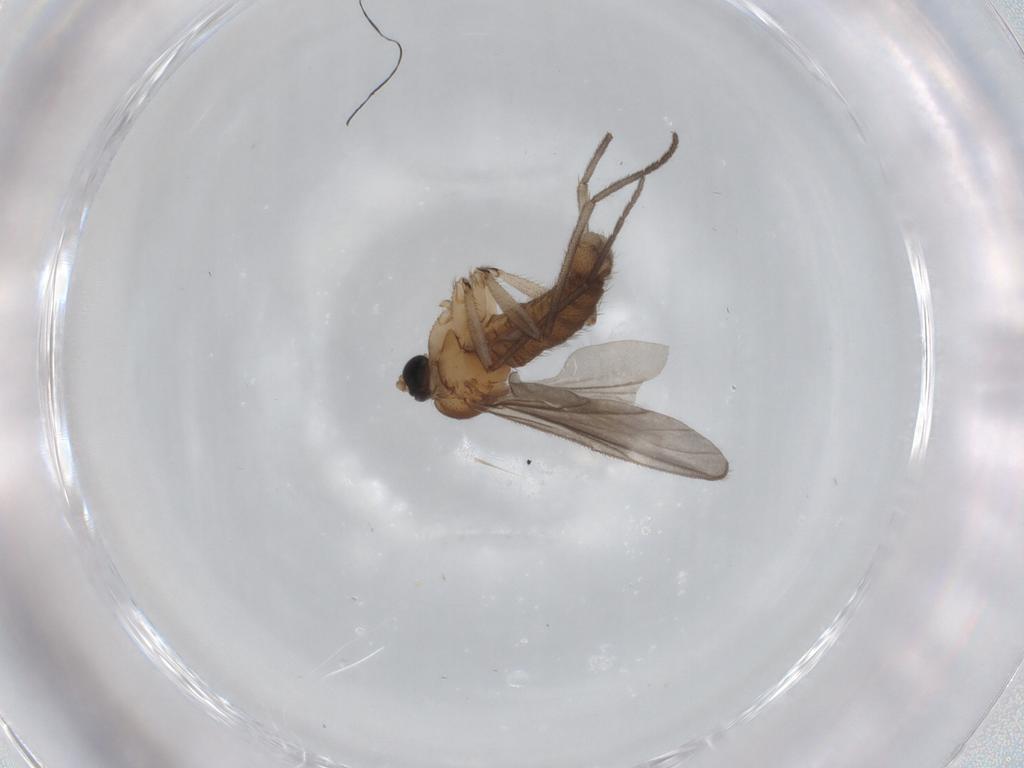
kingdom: Animalia
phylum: Arthropoda
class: Insecta
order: Diptera
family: Sciaridae
